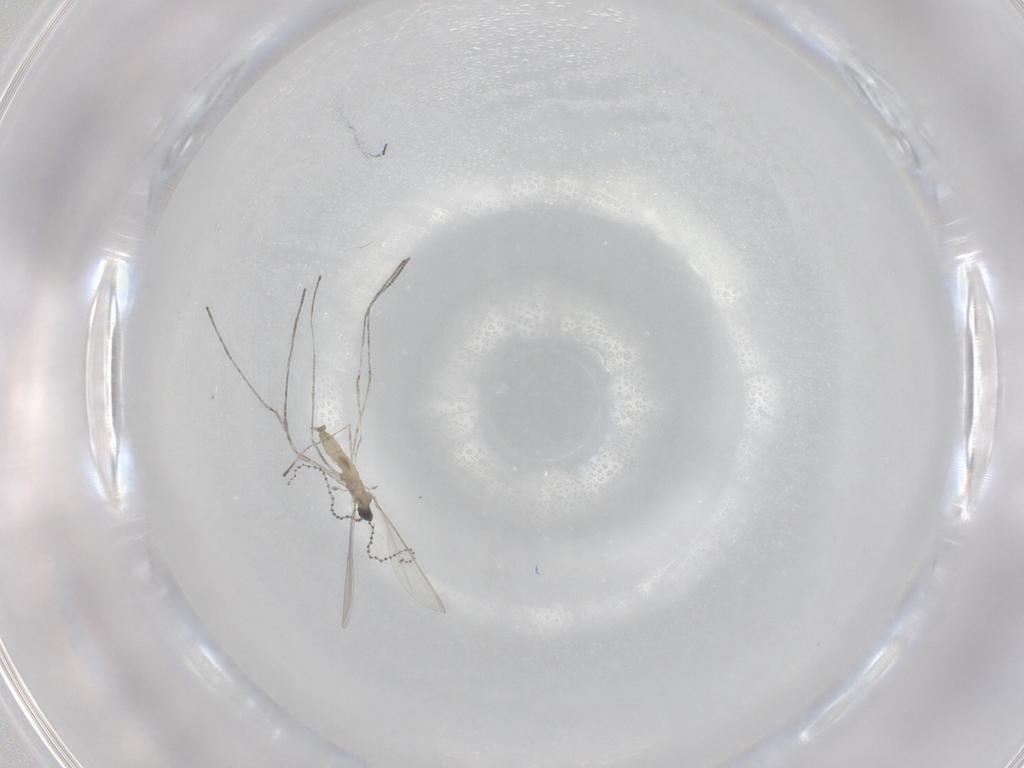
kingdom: Animalia
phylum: Arthropoda
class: Insecta
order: Diptera
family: Cecidomyiidae
